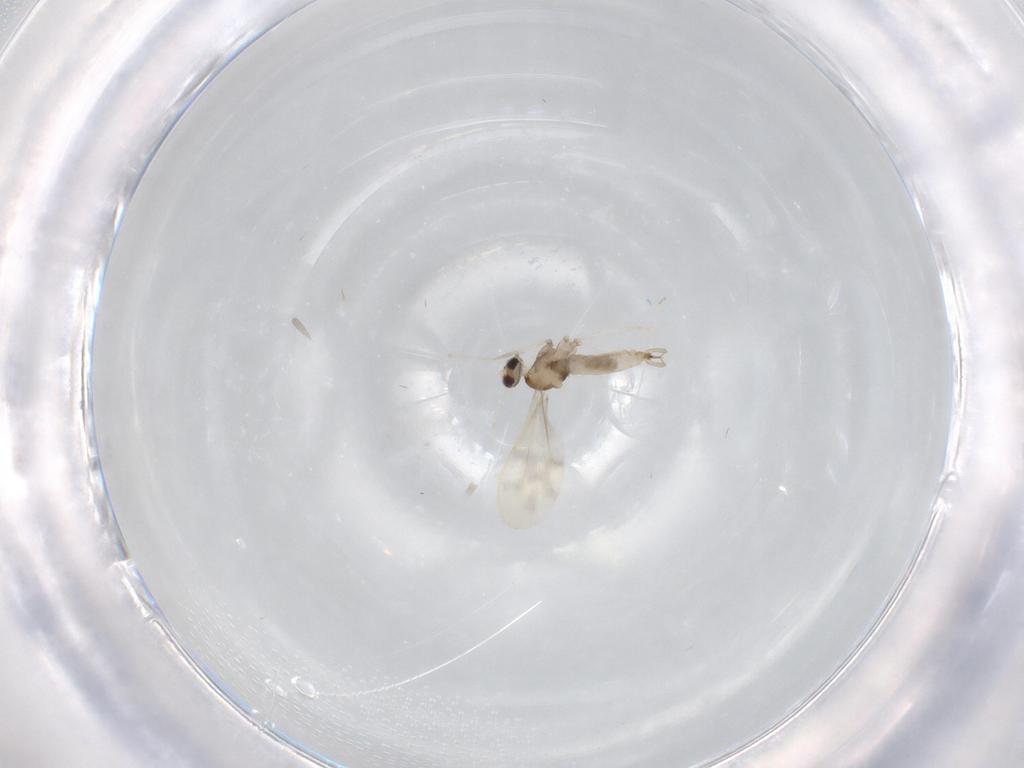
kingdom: Animalia
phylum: Arthropoda
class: Insecta
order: Diptera
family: Cecidomyiidae
